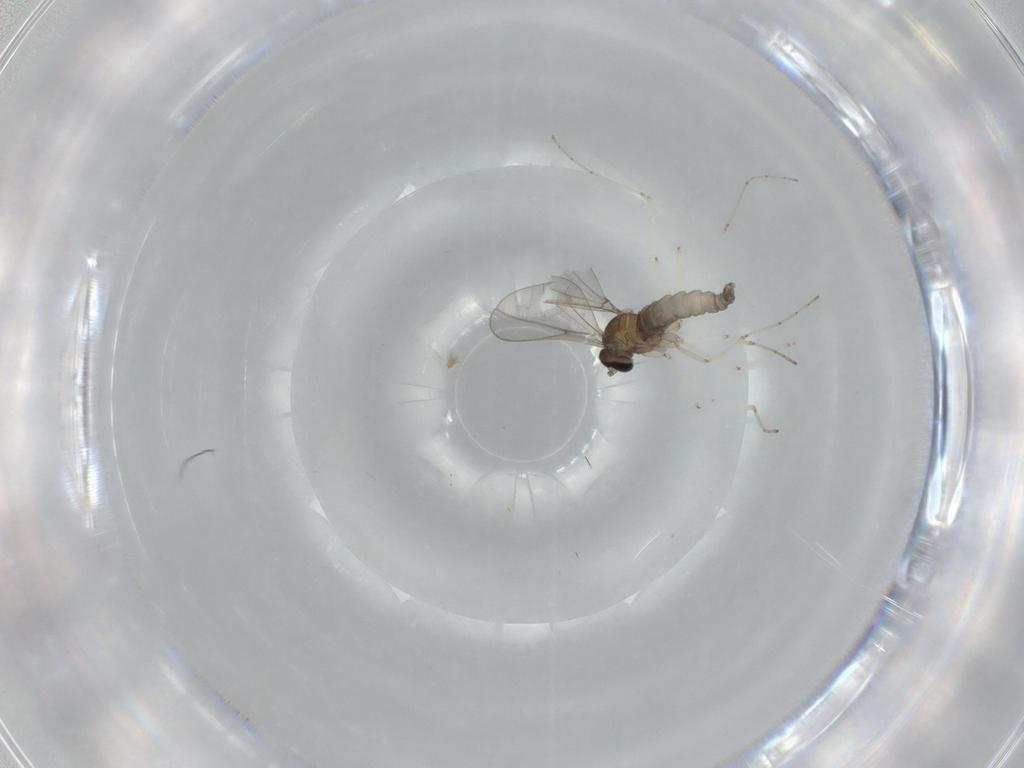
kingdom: Animalia
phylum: Arthropoda
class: Insecta
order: Diptera
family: Cecidomyiidae
